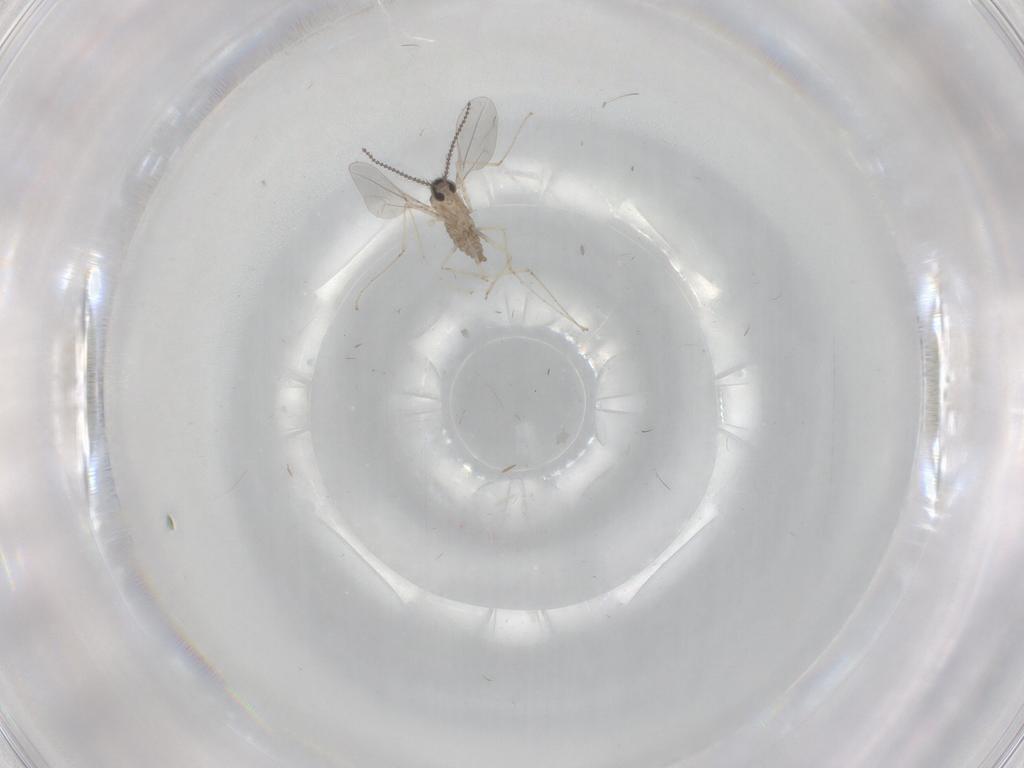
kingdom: Animalia
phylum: Arthropoda
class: Insecta
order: Diptera
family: Cecidomyiidae
